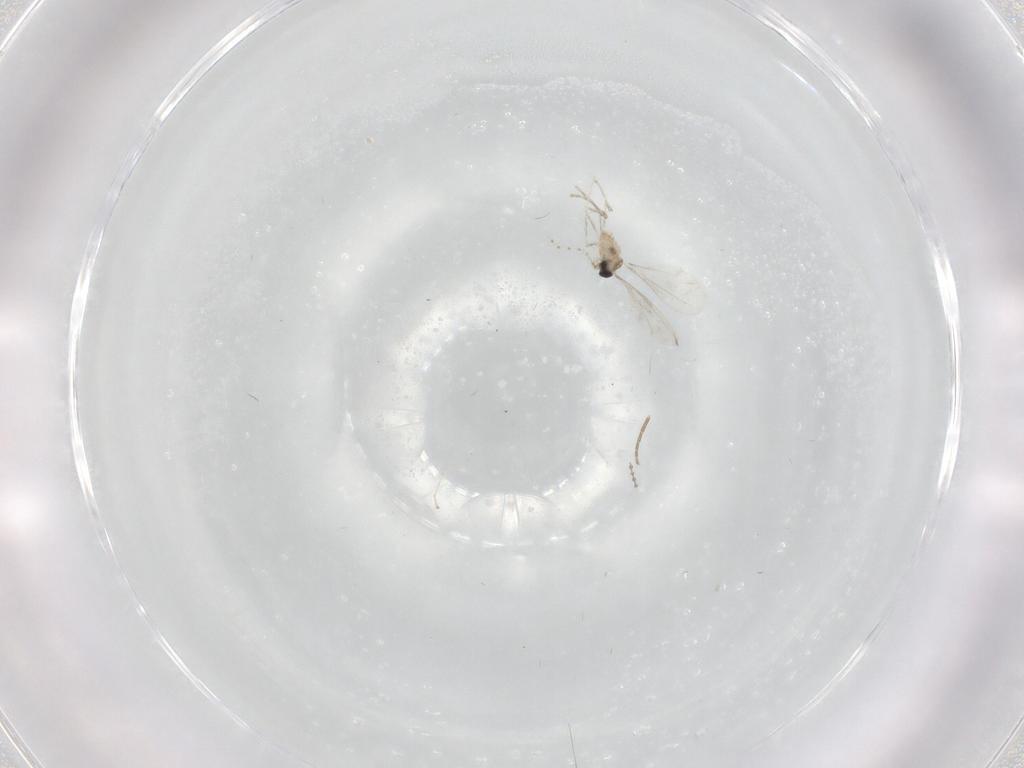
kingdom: Animalia
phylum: Arthropoda
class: Insecta
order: Diptera
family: Cecidomyiidae
